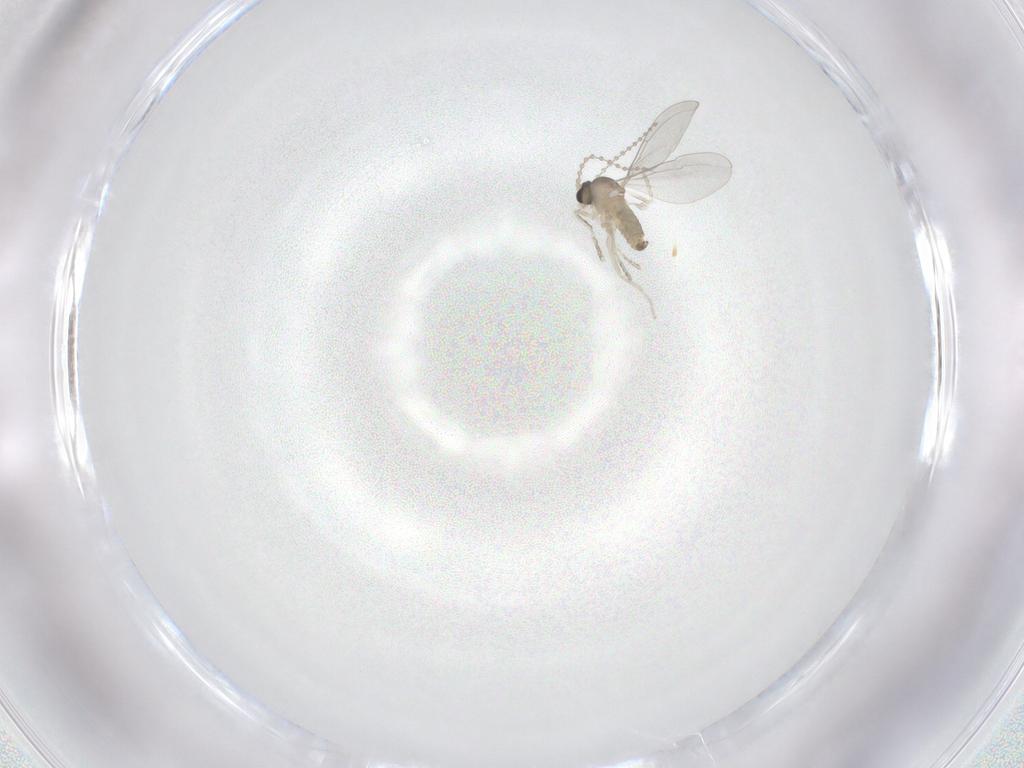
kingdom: Animalia
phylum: Arthropoda
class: Insecta
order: Diptera
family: Cecidomyiidae
